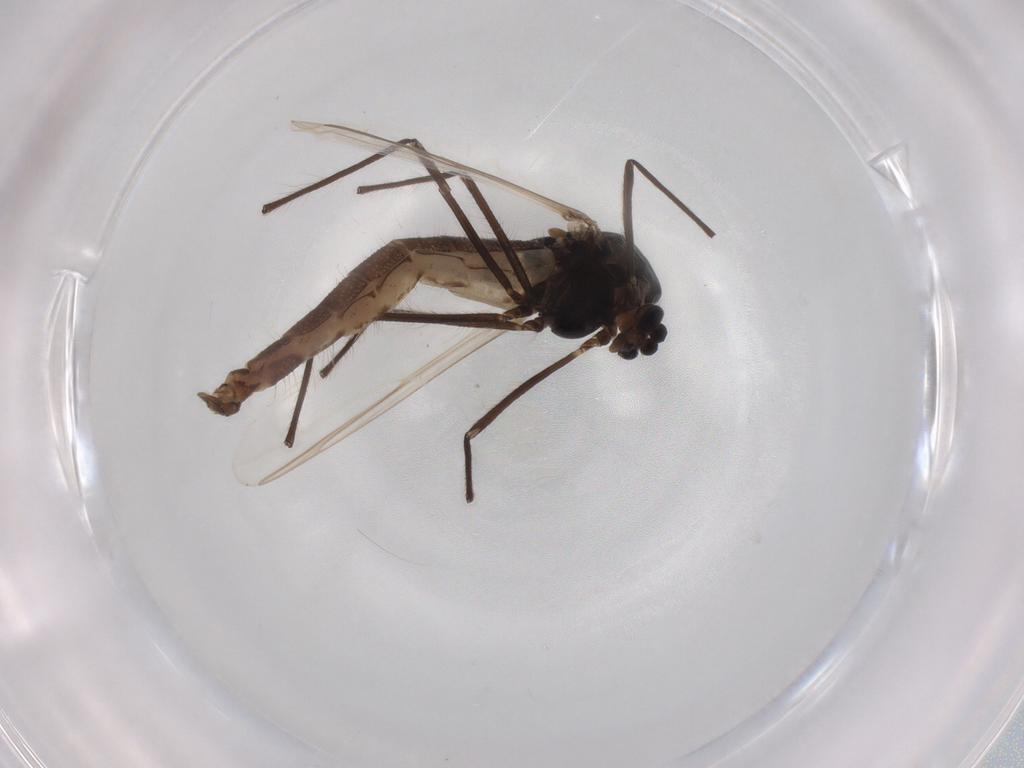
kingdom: Animalia
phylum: Arthropoda
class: Insecta
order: Diptera
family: Chironomidae
